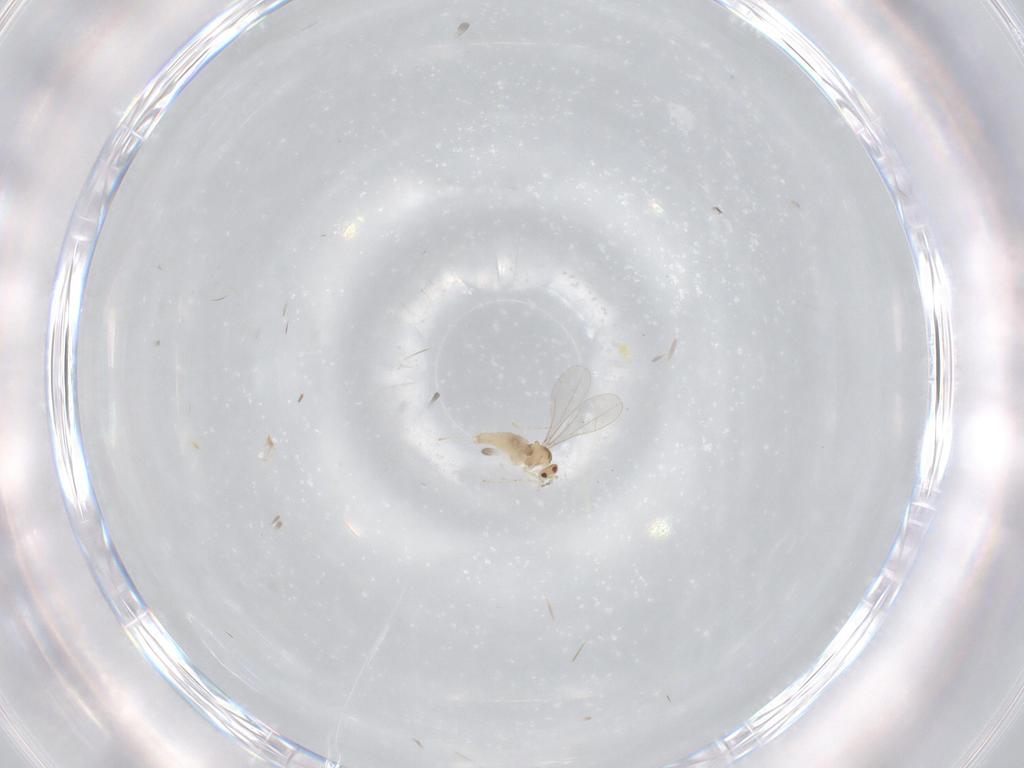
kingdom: Animalia
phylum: Arthropoda
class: Insecta
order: Diptera
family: Cecidomyiidae
